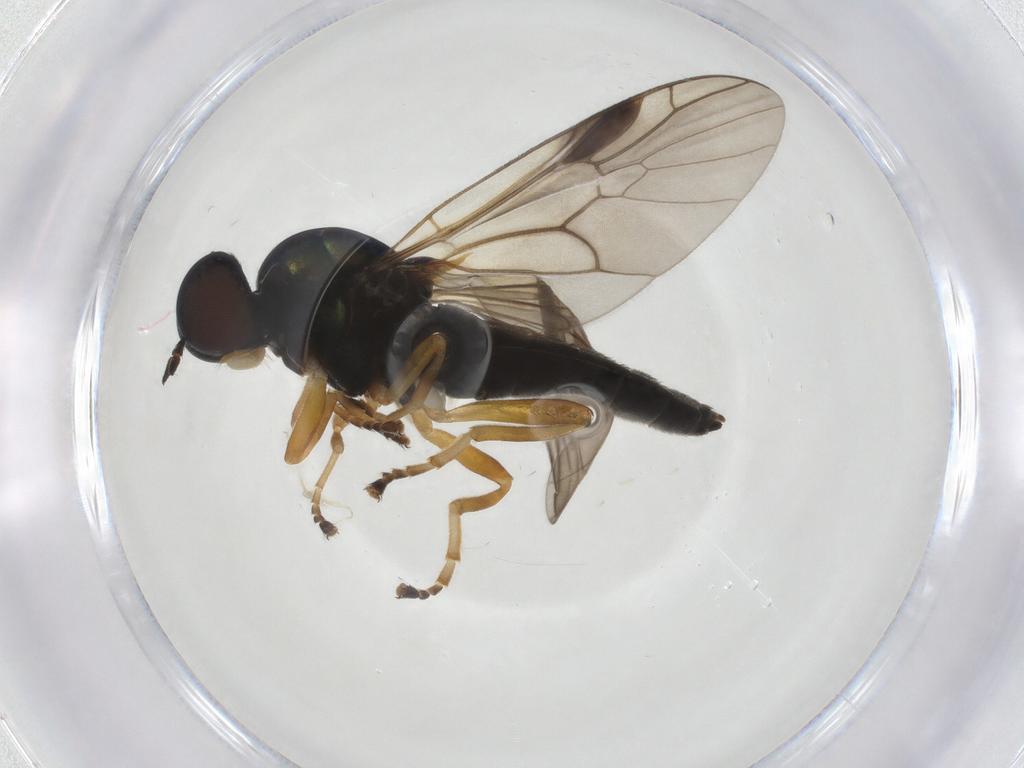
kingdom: Animalia
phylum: Arthropoda
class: Insecta
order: Diptera
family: Stratiomyidae
